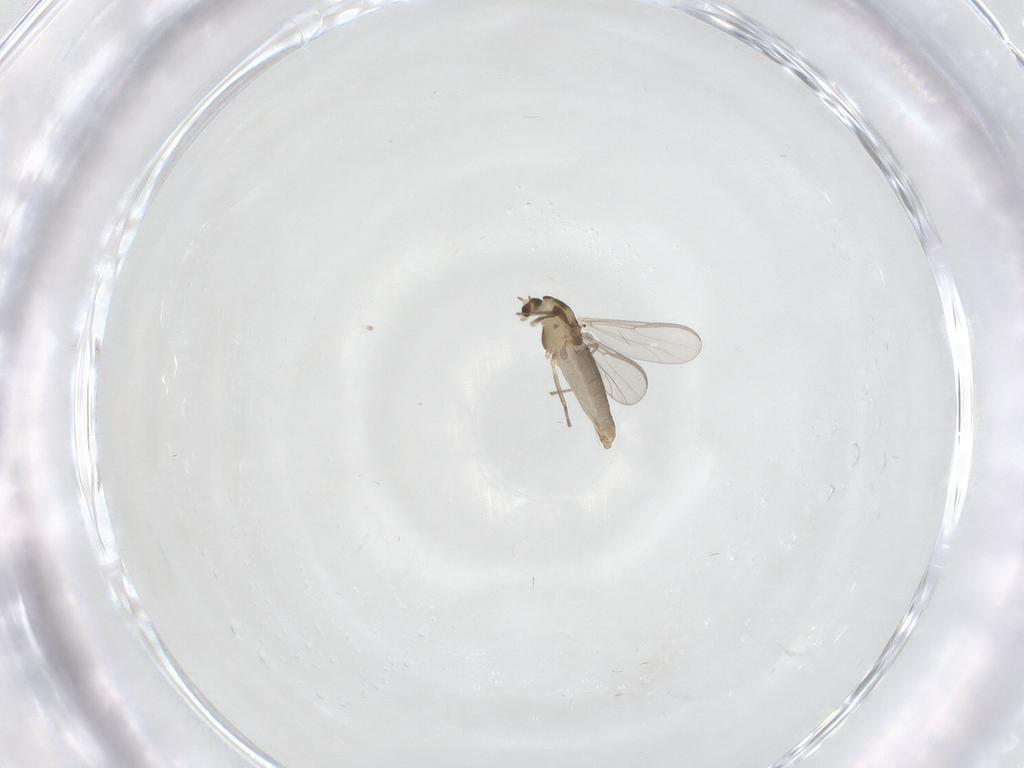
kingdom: Animalia
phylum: Arthropoda
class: Insecta
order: Diptera
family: Chironomidae
